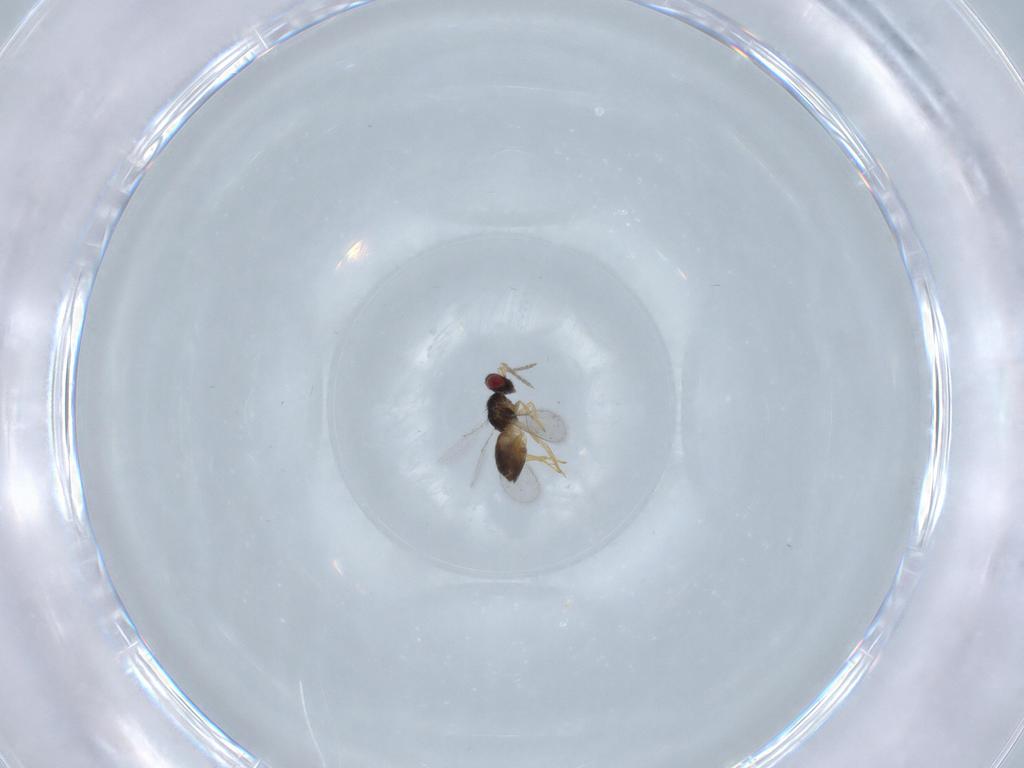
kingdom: Animalia
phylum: Arthropoda
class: Insecta
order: Hymenoptera
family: Eulophidae
